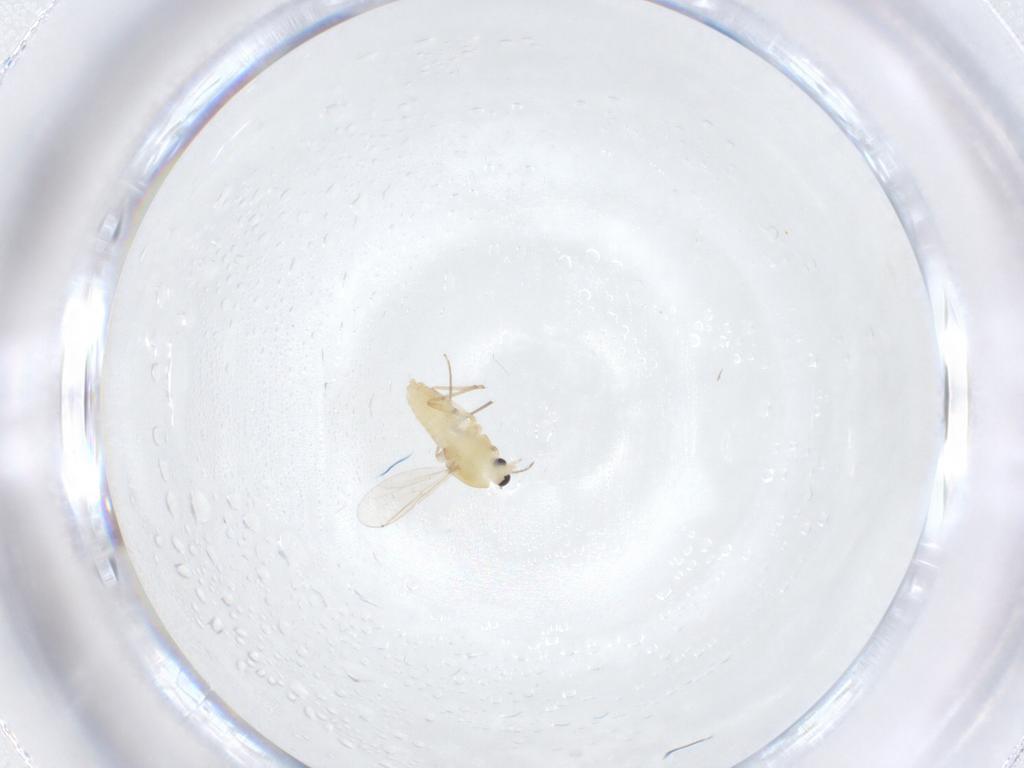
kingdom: Animalia
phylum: Arthropoda
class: Insecta
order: Diptera
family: Chironomidae
